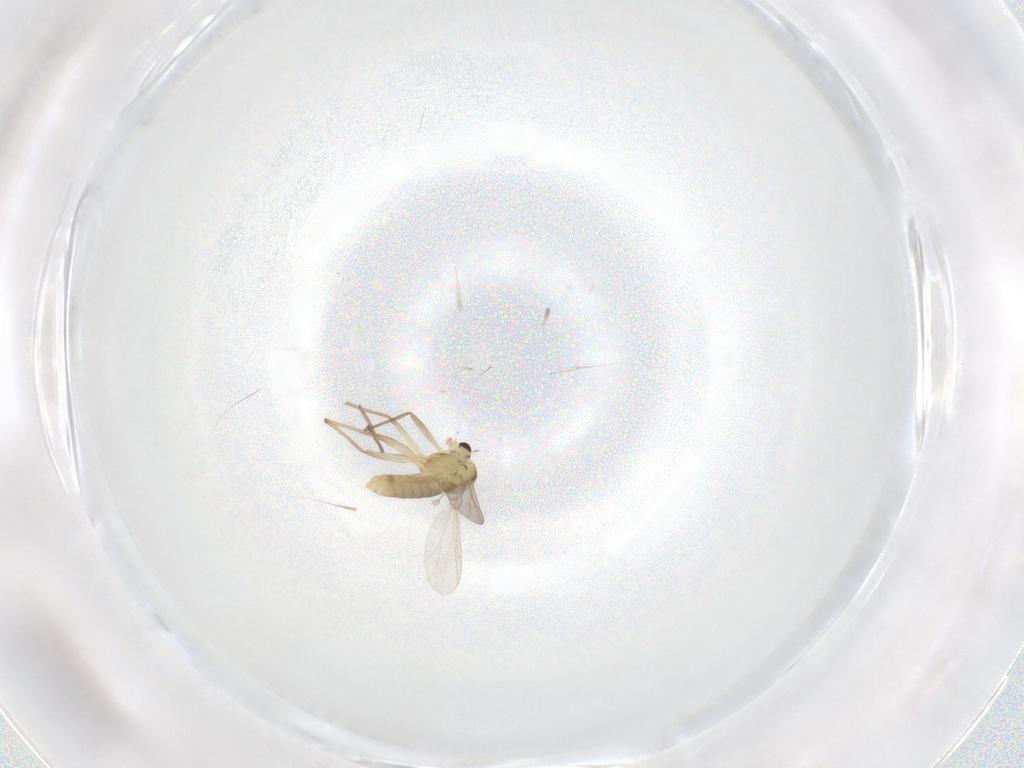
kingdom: Animalia
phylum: Arthropoda
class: Insecta
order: Diptera
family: Chironomidae
